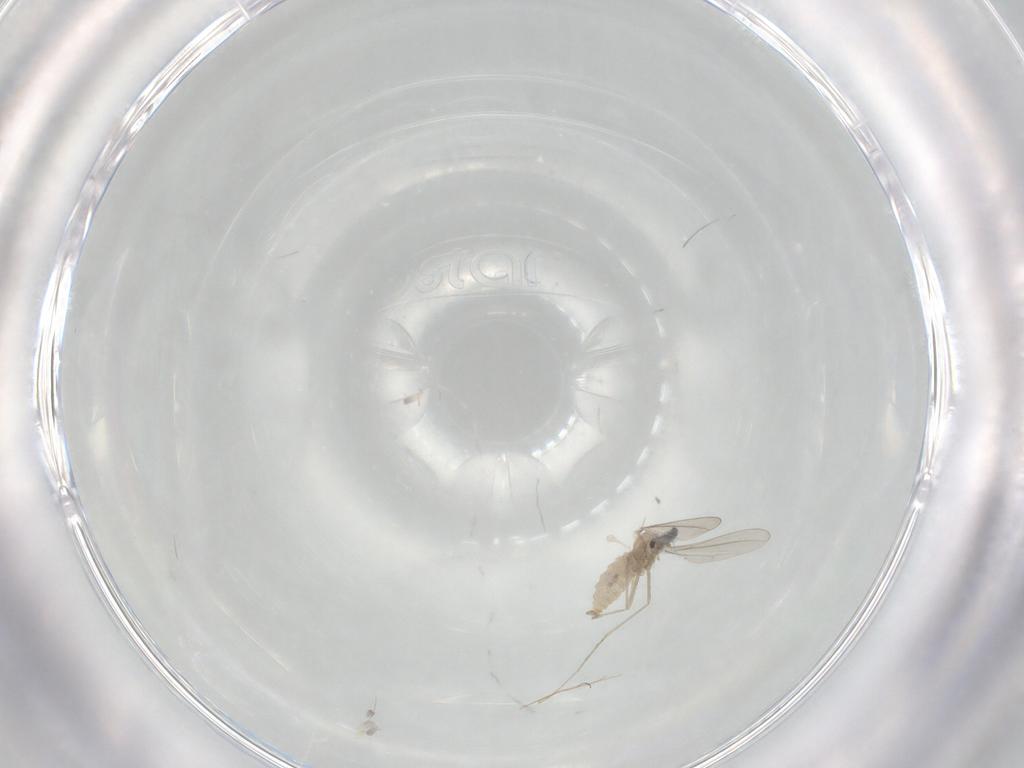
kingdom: Animalia
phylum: Arthropoda
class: Insecta
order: Diptera
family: Cecidomyiidae
